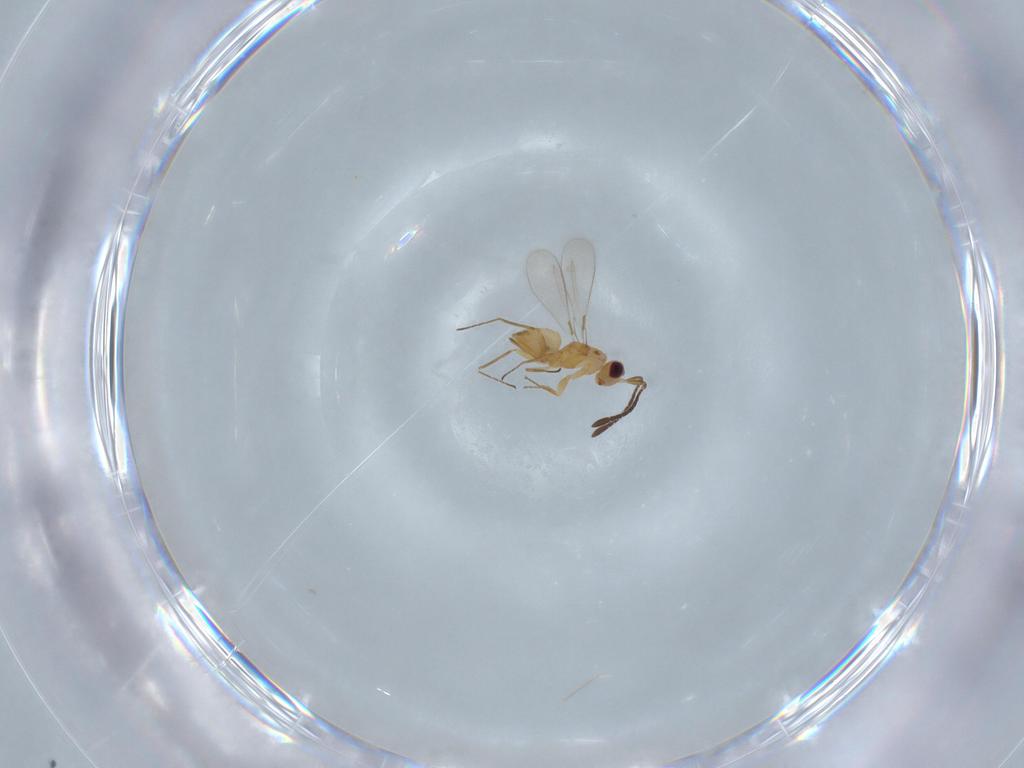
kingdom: Animalia
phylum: Arthropoda
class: Insecta
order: Hymenoptera
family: Mymaridae
